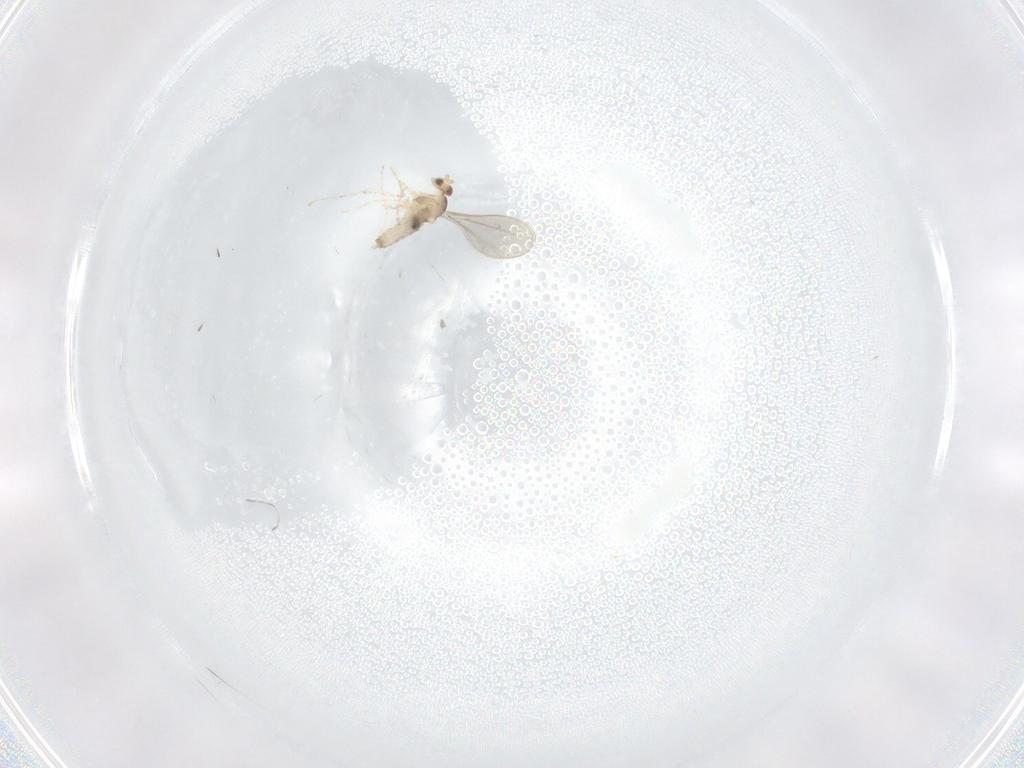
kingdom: Animalia
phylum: Arthropoda
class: Insecta
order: Diptera
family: Cecidomyiidae
